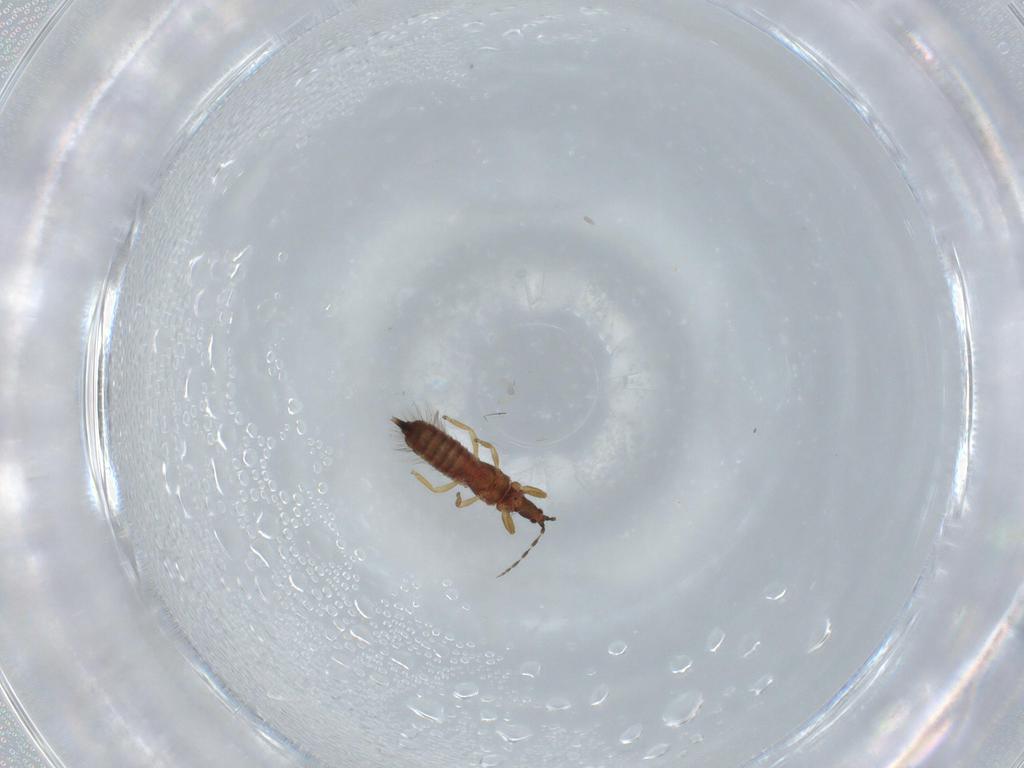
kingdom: Animalia
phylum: Arthropoda
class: Insecta
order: Thysanoptera
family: Phlaeothripidae
